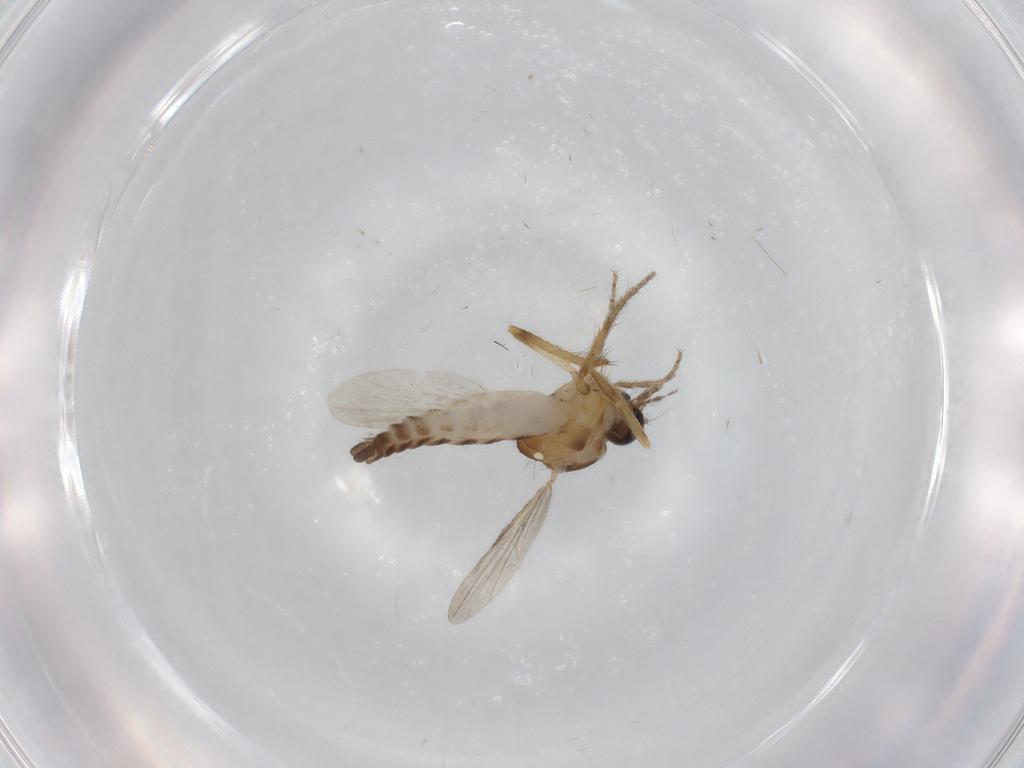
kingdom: Animalia
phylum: Arthropoda
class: Insecta
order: Diptera
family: Ceratopogonidae
